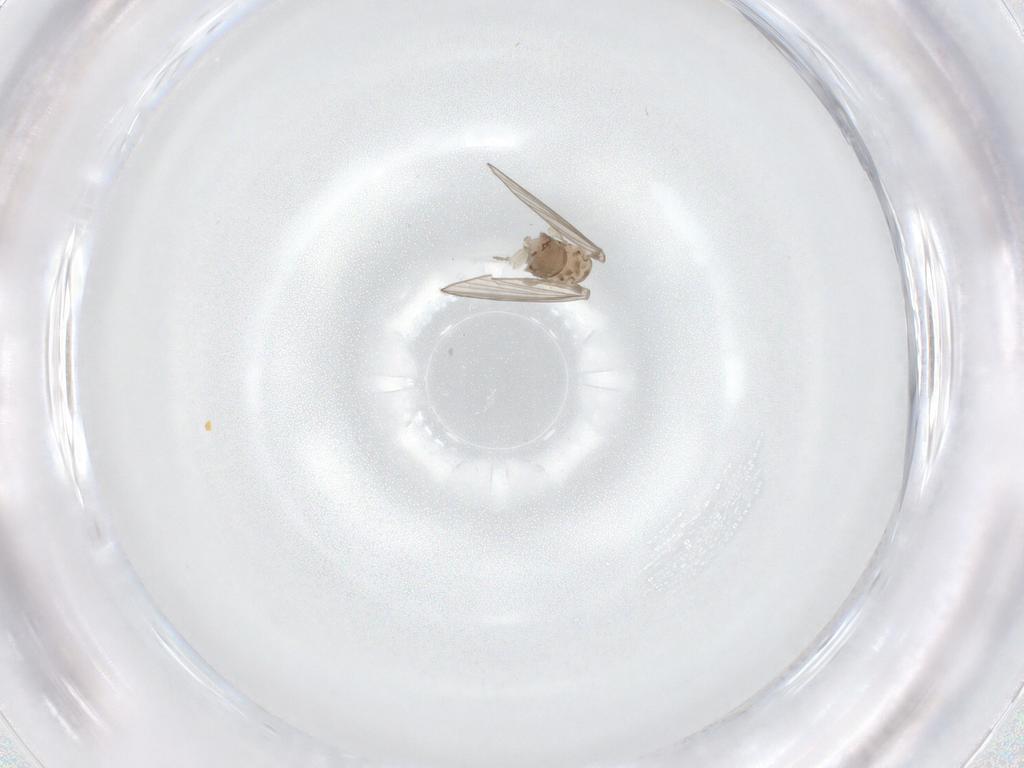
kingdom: Animalia
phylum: Arthropoda
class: Insecta
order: Diptera
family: Psychodidae
